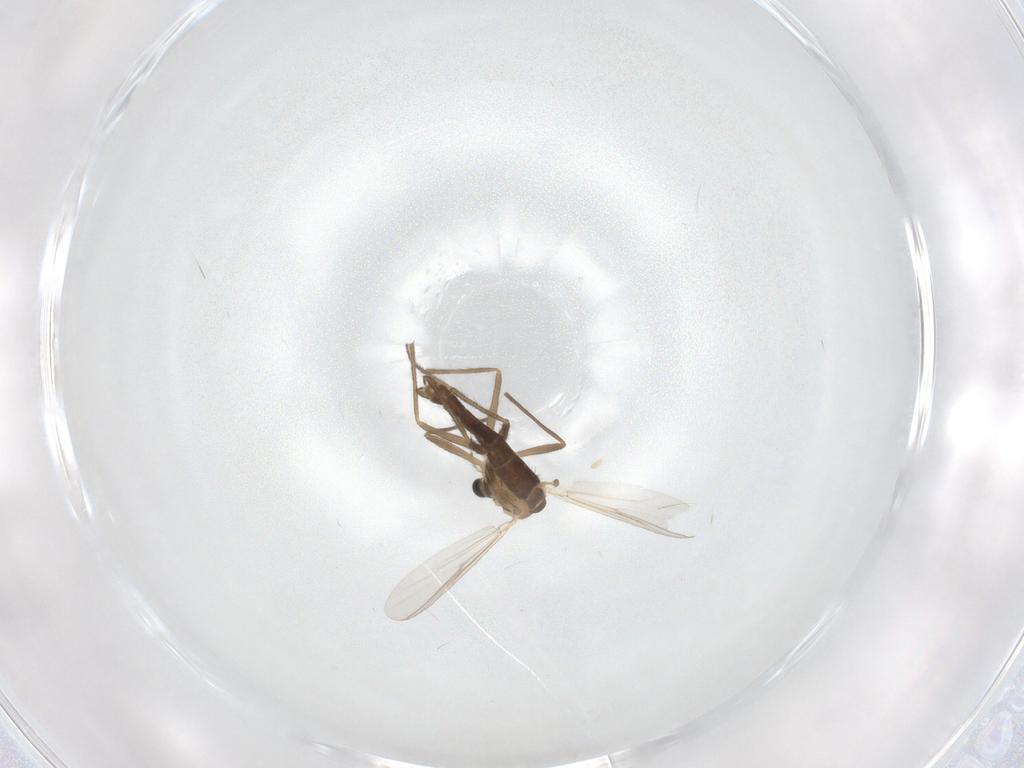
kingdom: Animalia
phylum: Arthropoda
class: Insecta
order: Diptera
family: Chironomidae
